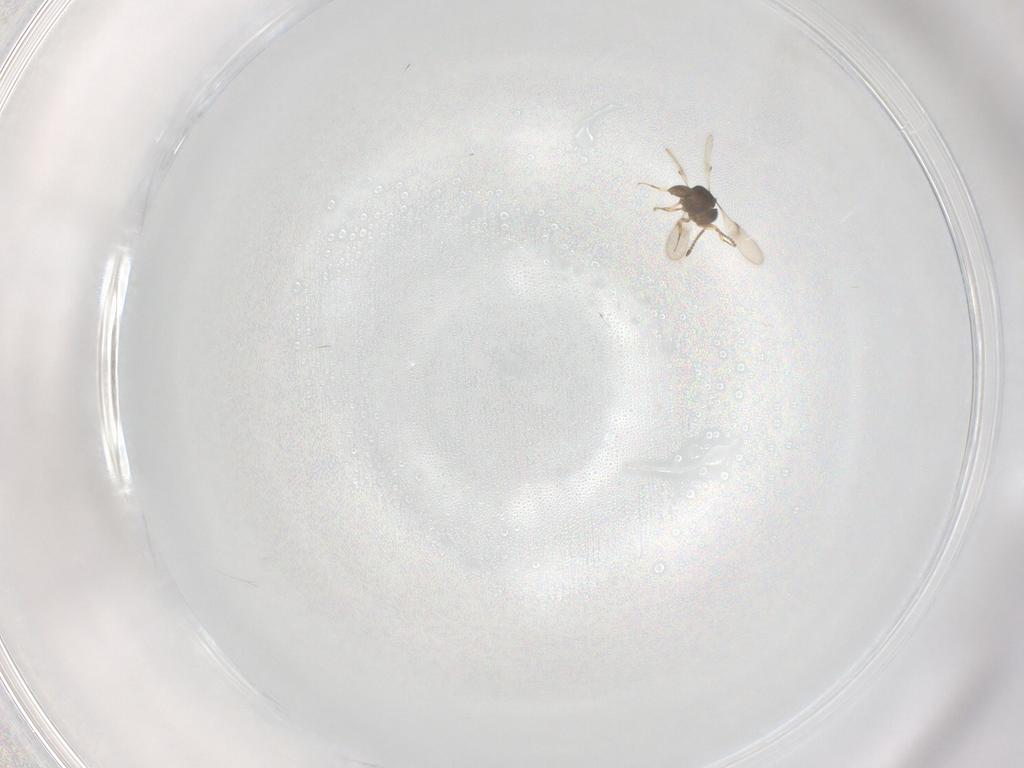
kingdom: Animalia
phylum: Arthropoda
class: Insecta
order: Hymenoptera
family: Scelionidae
